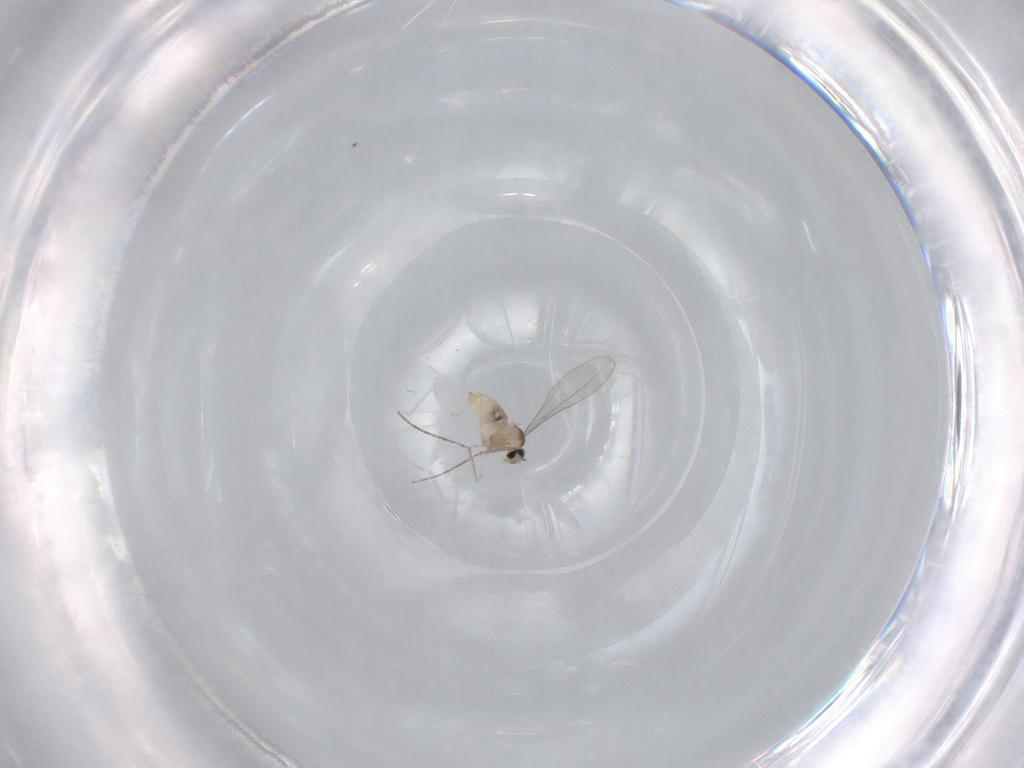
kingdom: Animalia
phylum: Arthropoda
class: Insecta
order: Diptera
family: Cecidomyiidae
